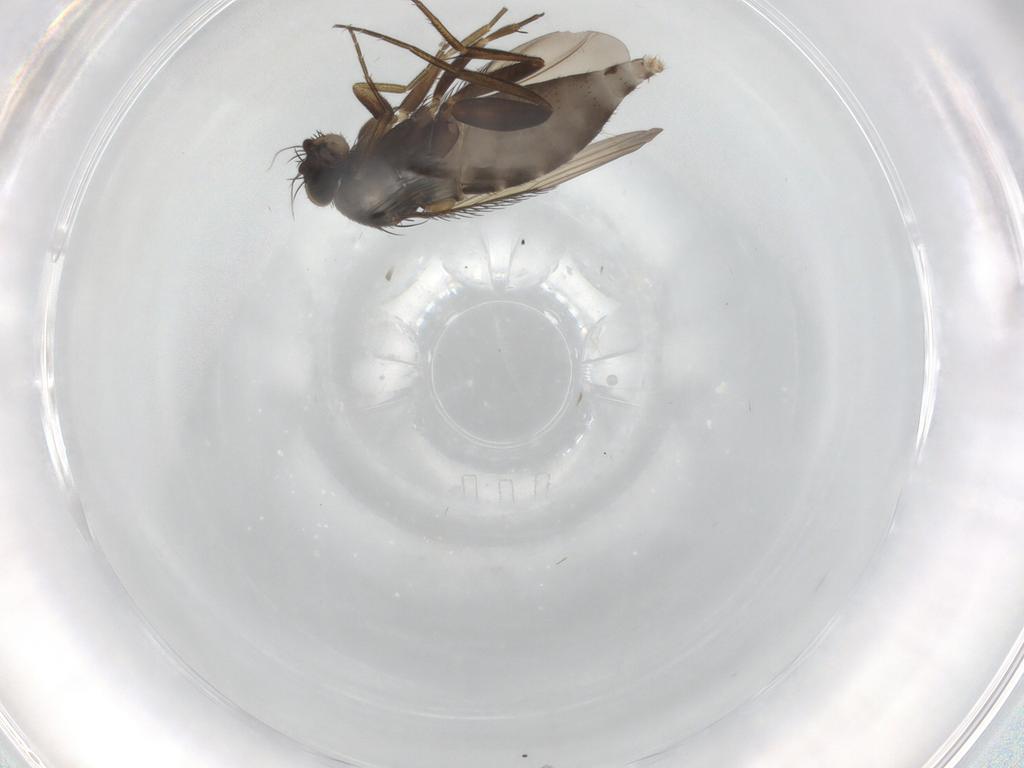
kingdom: Animalia
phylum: Arthropoda
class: Insecta
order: Diptera
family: Phoridae
